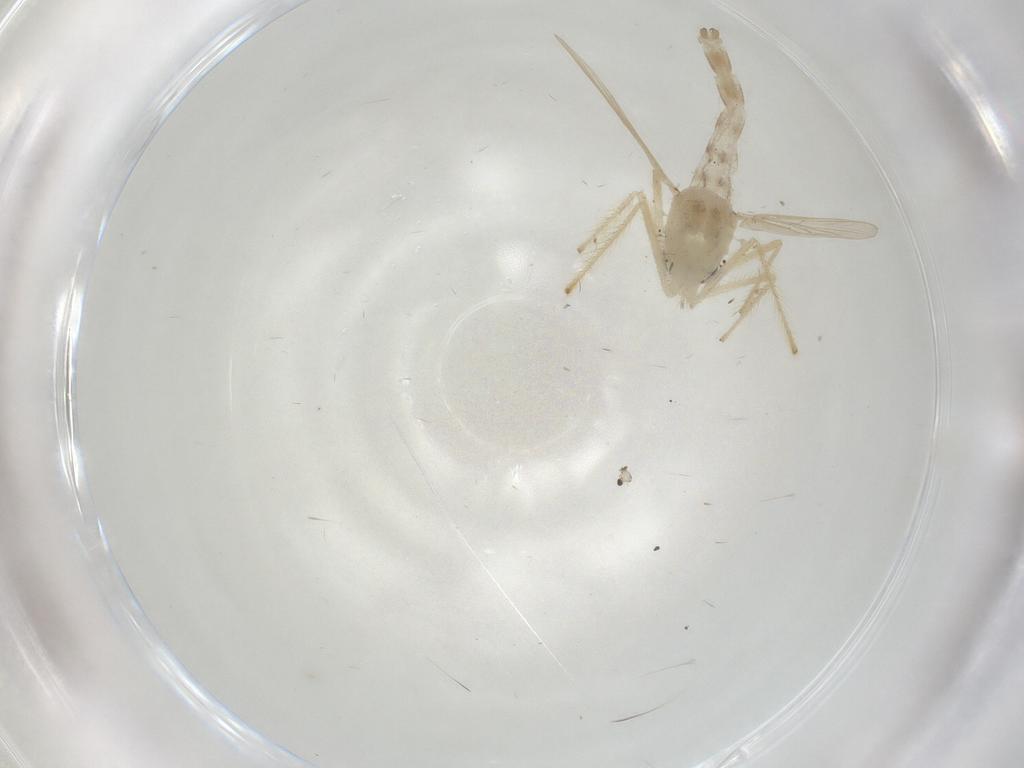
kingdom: Animalia
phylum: Arthropoda
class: Insecta
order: Diptera
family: Chironomidae
